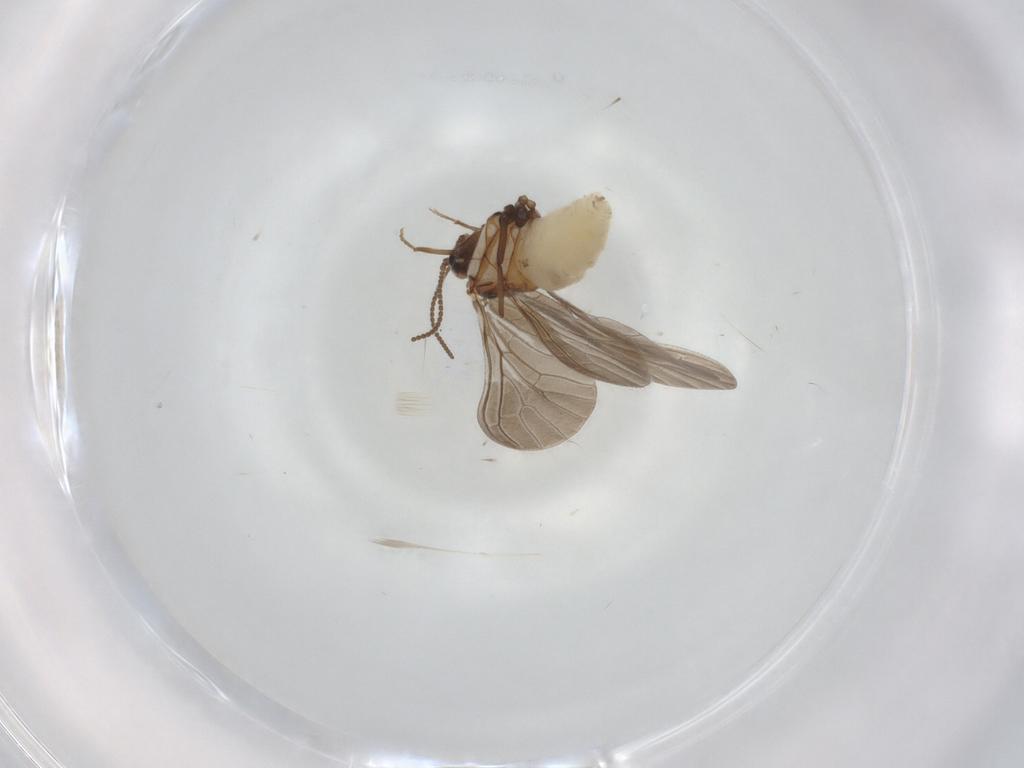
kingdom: Animalia
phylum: Arthropoda
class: Insecta
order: Neuroptera
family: Coniopterygidae
